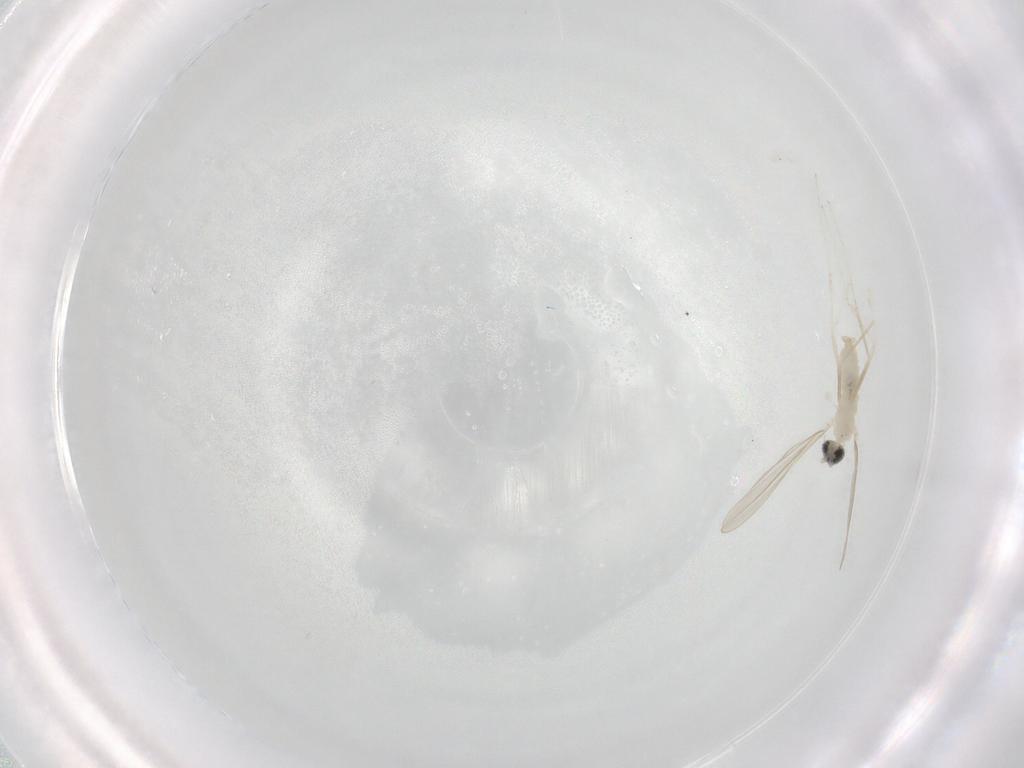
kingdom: Animalia
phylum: Arthropoda
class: Insecta
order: Diptera
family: Cecidomyiidae
